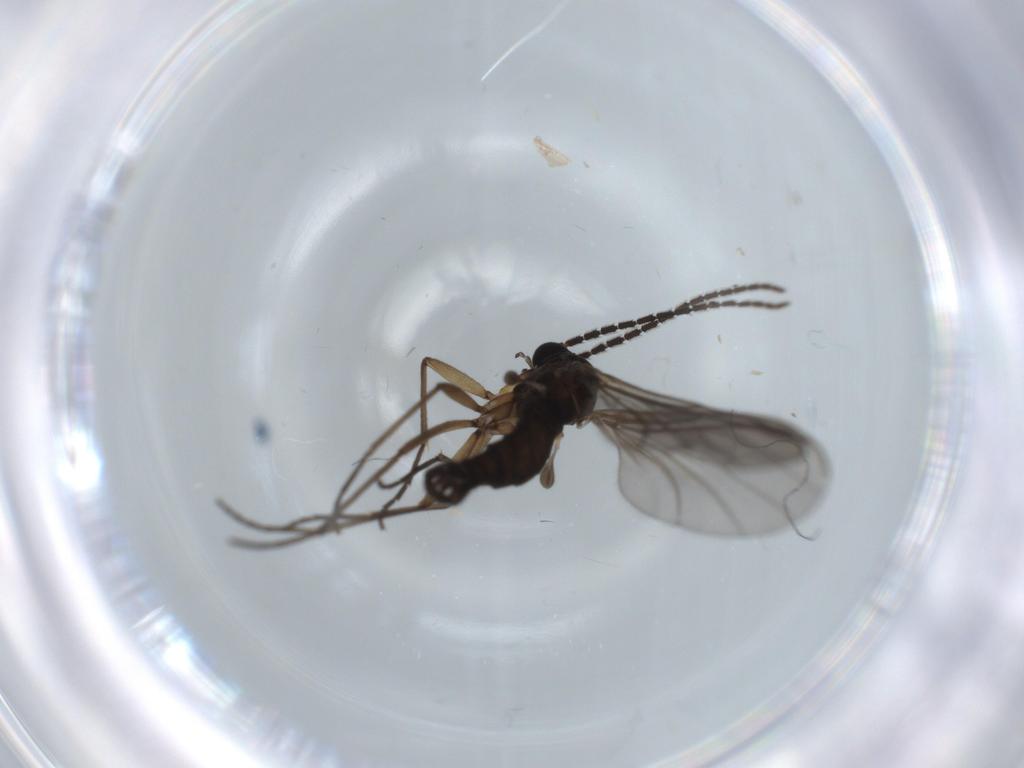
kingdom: Animalia
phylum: Arthropoda
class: Insecta
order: Diptera
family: Sciaridae
